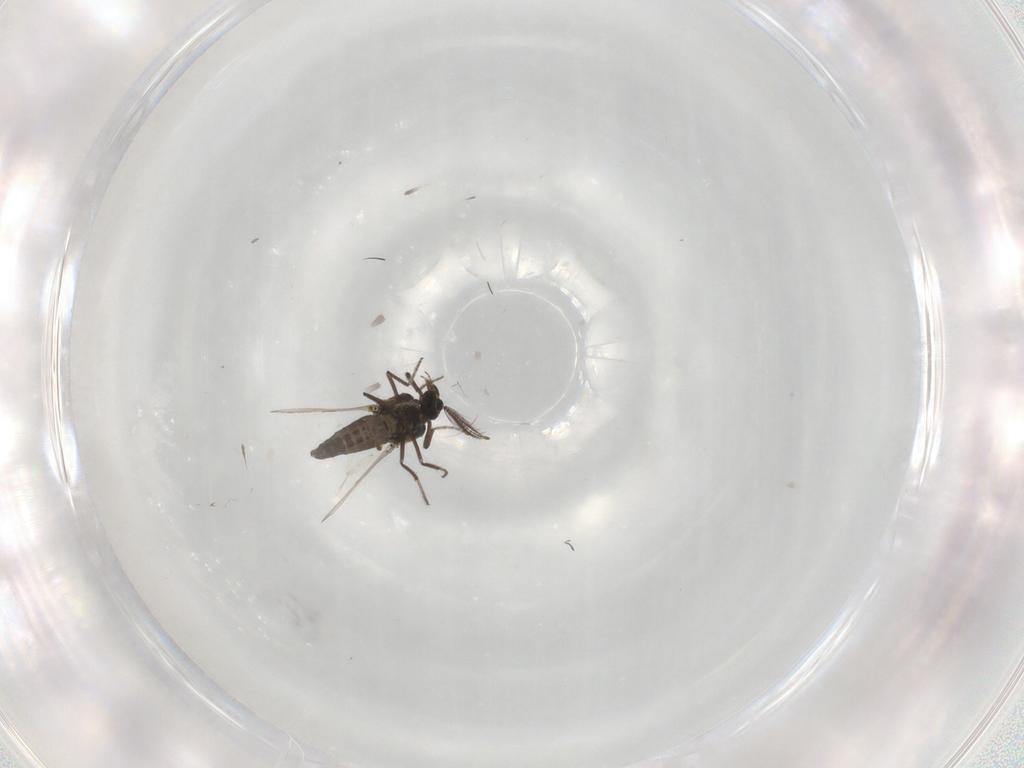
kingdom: Animalia
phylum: Arthropoda
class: Insecta
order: Diptera
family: Ceratopogonidae
